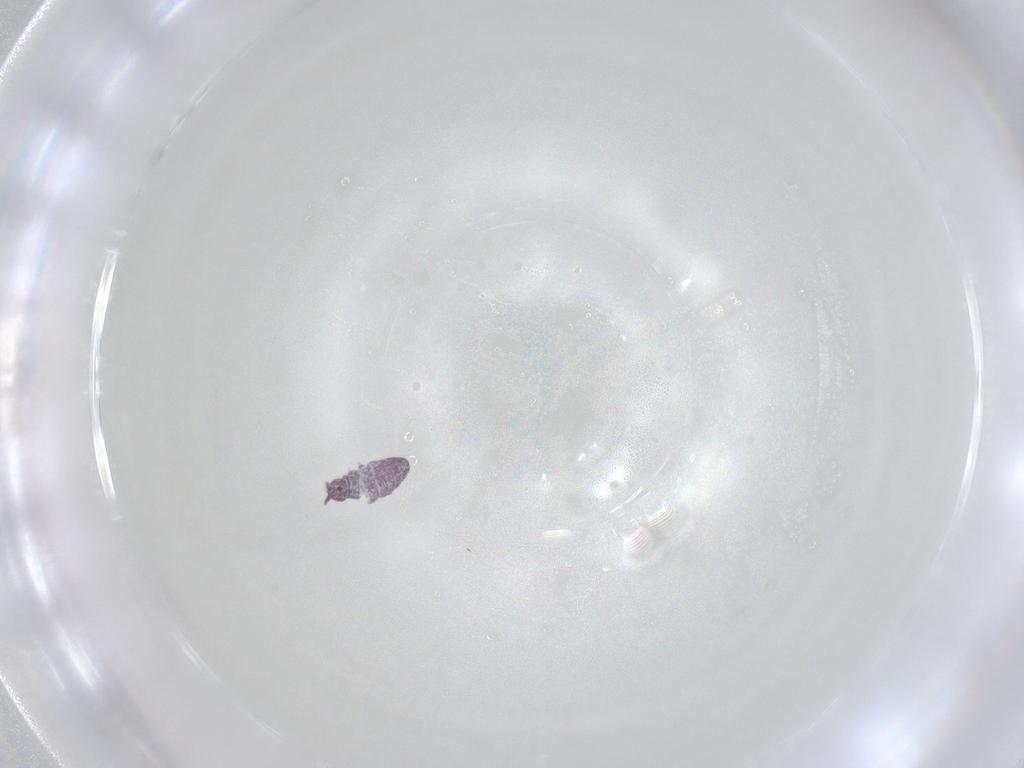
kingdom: Animalia
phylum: Arthropoda
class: Collembola
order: Poduromorpha
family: Brachystomellidae
